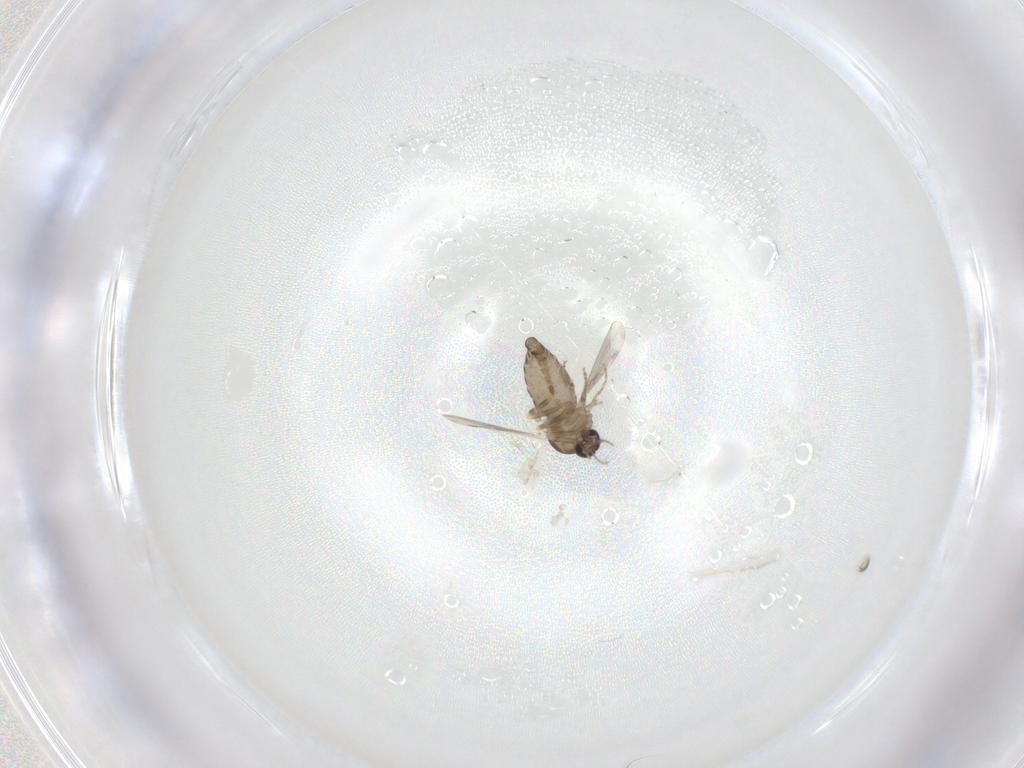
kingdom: Animalia
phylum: Arthropoda
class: Insecta
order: Diptera
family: Ceratopogonidae
